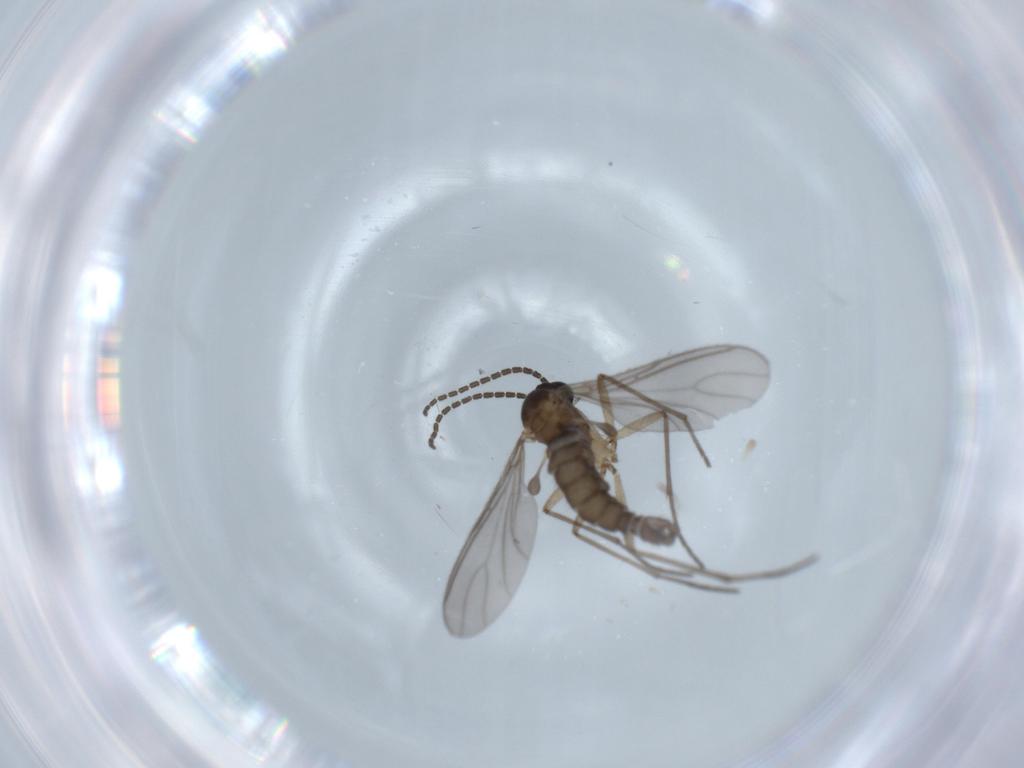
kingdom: Animalia
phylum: Arthropoda
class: Insecta
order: Diptera
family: Sciaridae
